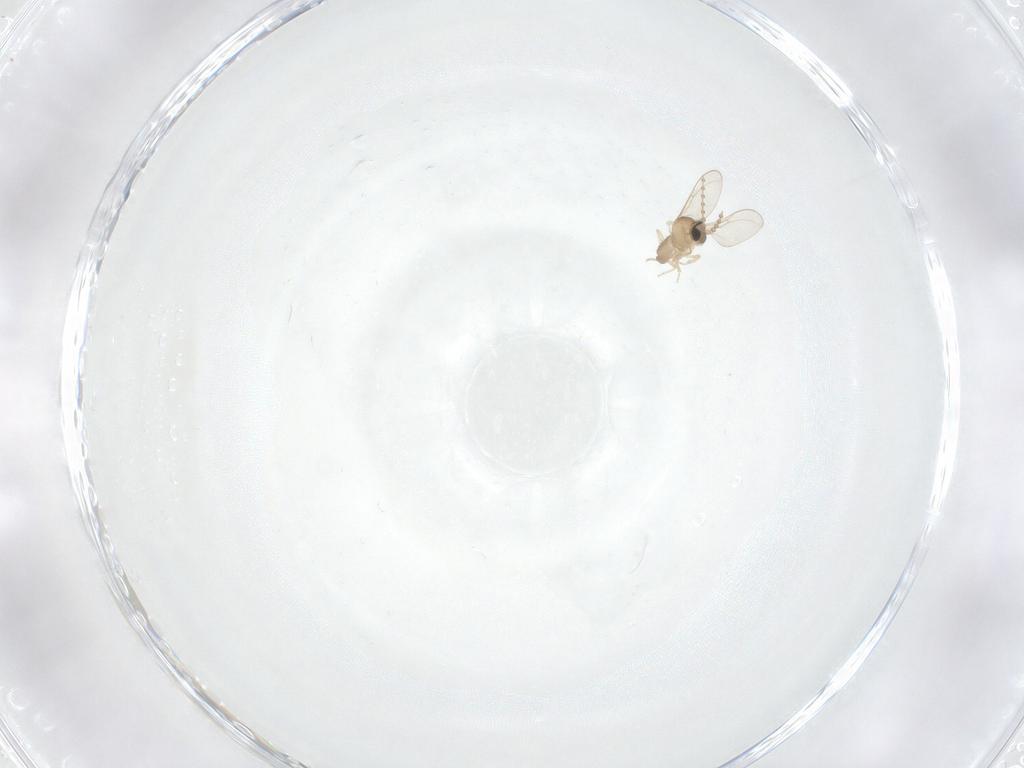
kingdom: Animalia
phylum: Arthropoda
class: Insecta
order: Diptera
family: Cecidomyiidae
